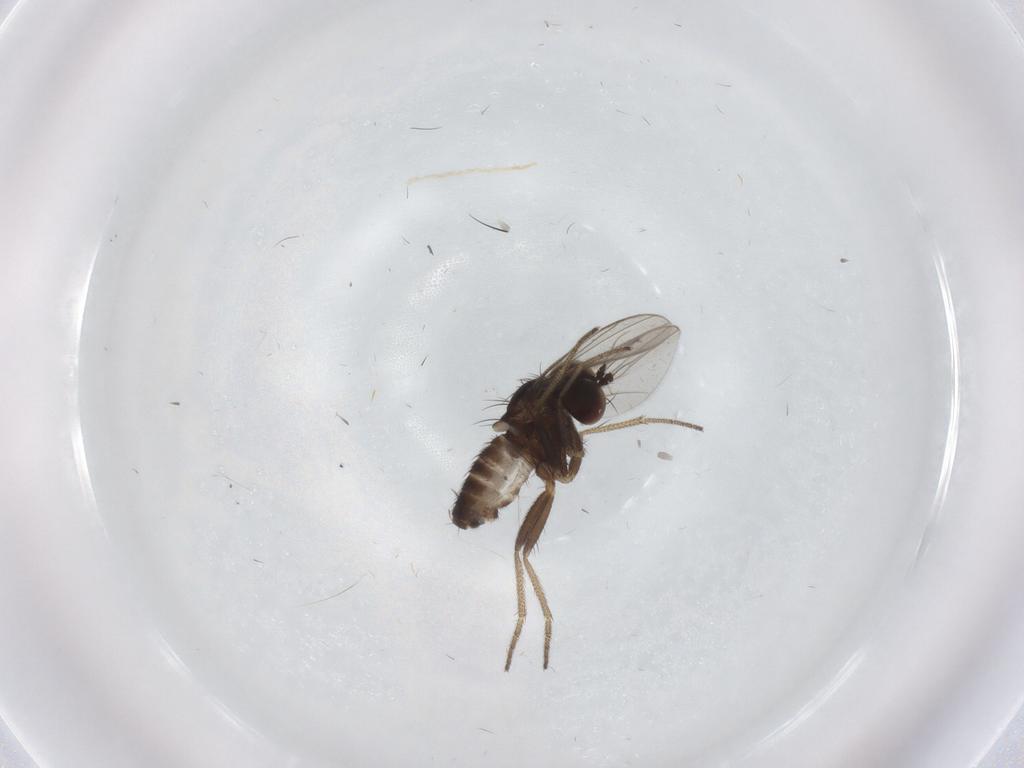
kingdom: Animalia
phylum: Arthropoda
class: Insecta
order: Diptera
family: Dolichopodidae
